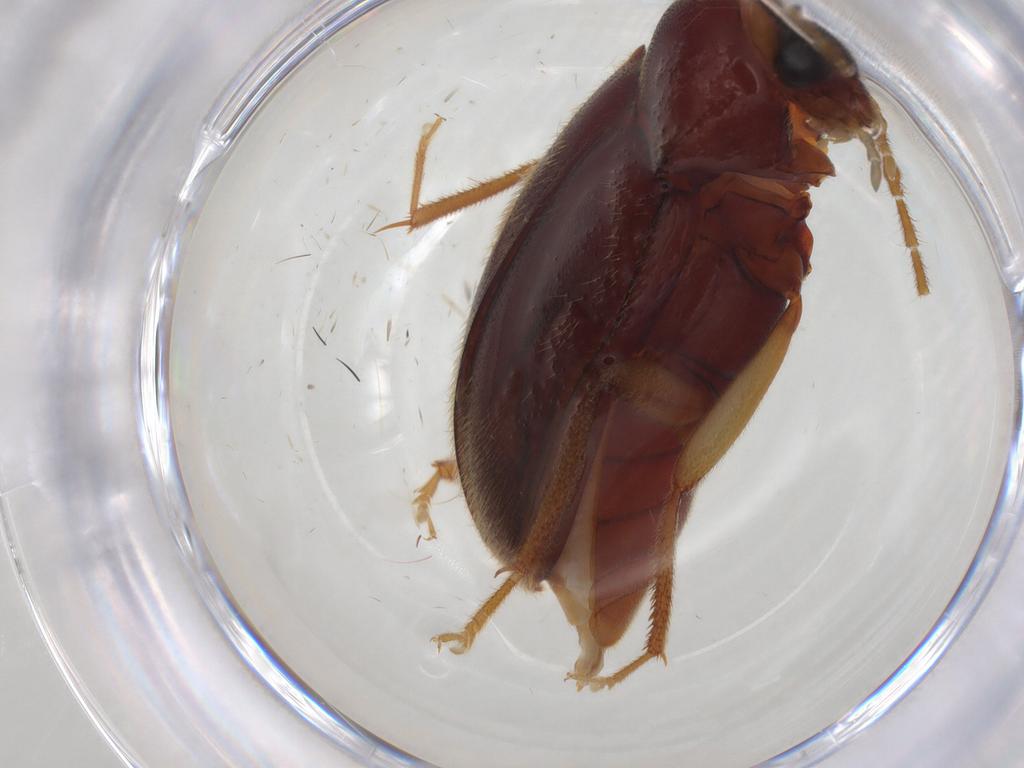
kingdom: Animalia
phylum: Arthropoda
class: Insecta
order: Coleoptera
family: Ptilodactylidae
